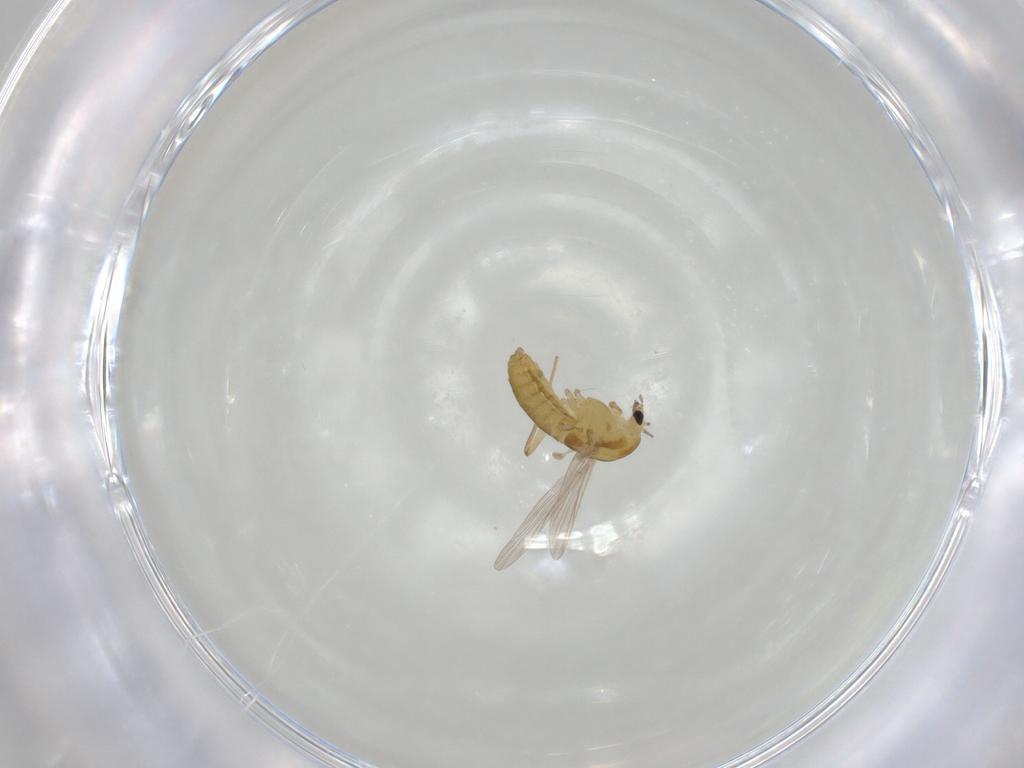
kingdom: Animalia
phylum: Arthropoda
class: Insecta
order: Diptera
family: Chironomidae
